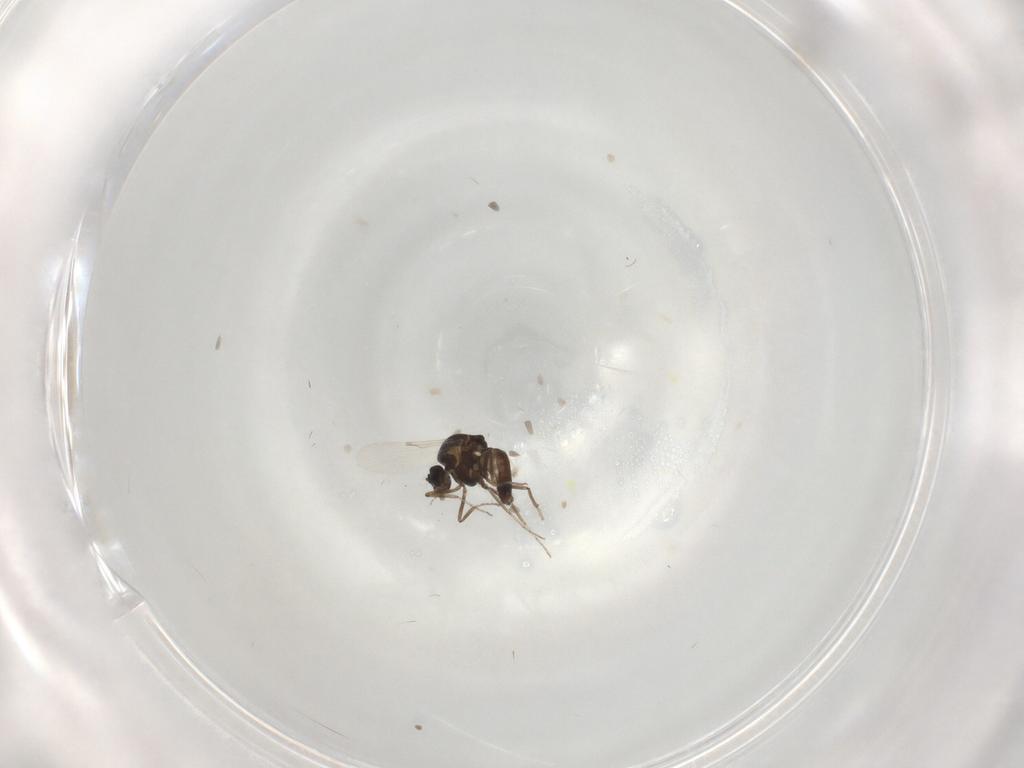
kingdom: Animalia
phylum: Arthropoda
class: Insecta
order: Diptera
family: Ceratopogonidae
